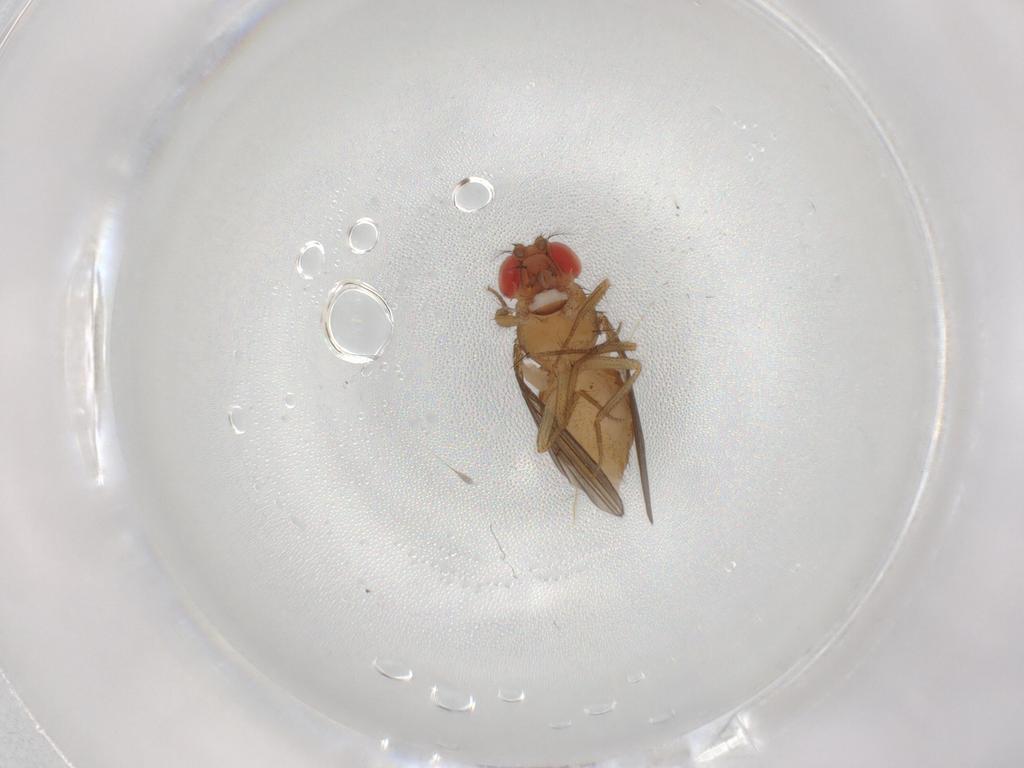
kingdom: Animalia
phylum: Arthropoda
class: Insecta
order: Diptera
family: Drosophilidae
